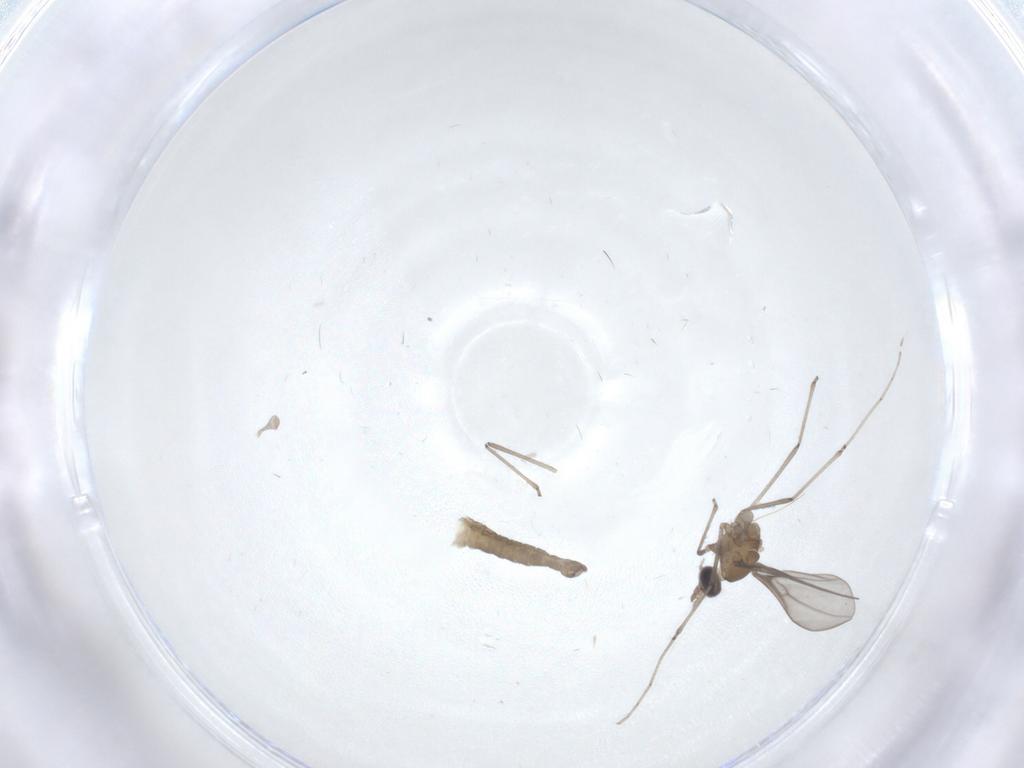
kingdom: Animalia
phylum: Arthropoda
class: Insecta
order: Diptera
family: Cecidomyiidae
